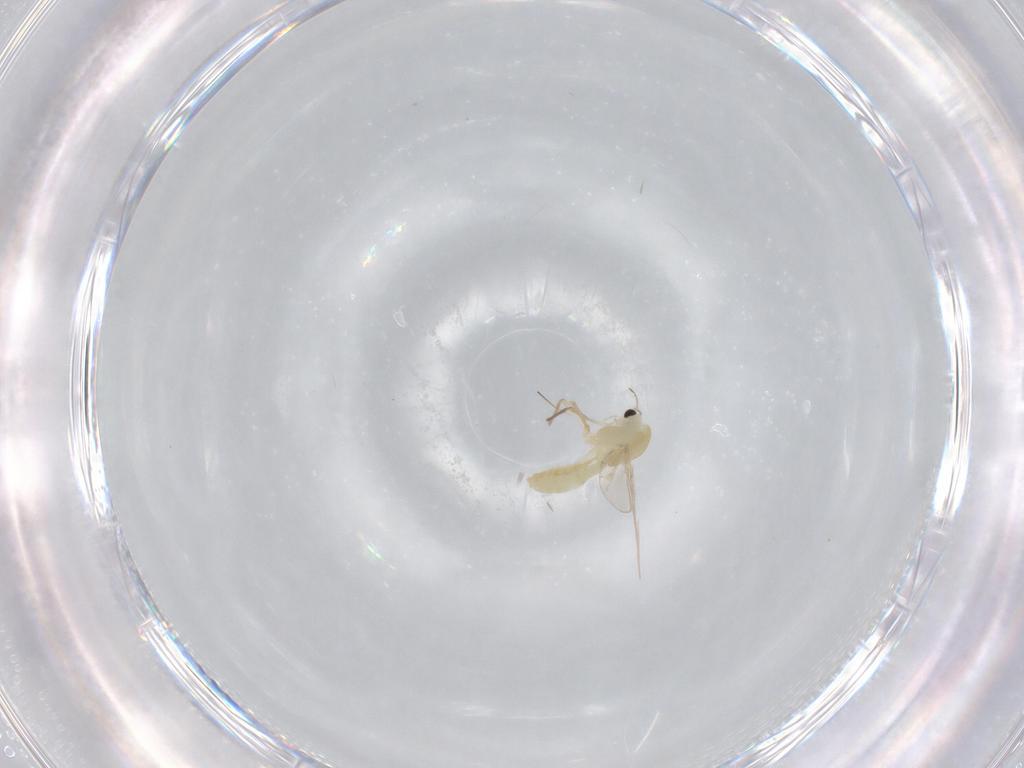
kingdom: Animalia
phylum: Arthropoda
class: Insecta
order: Diptera
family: Chironomidae
